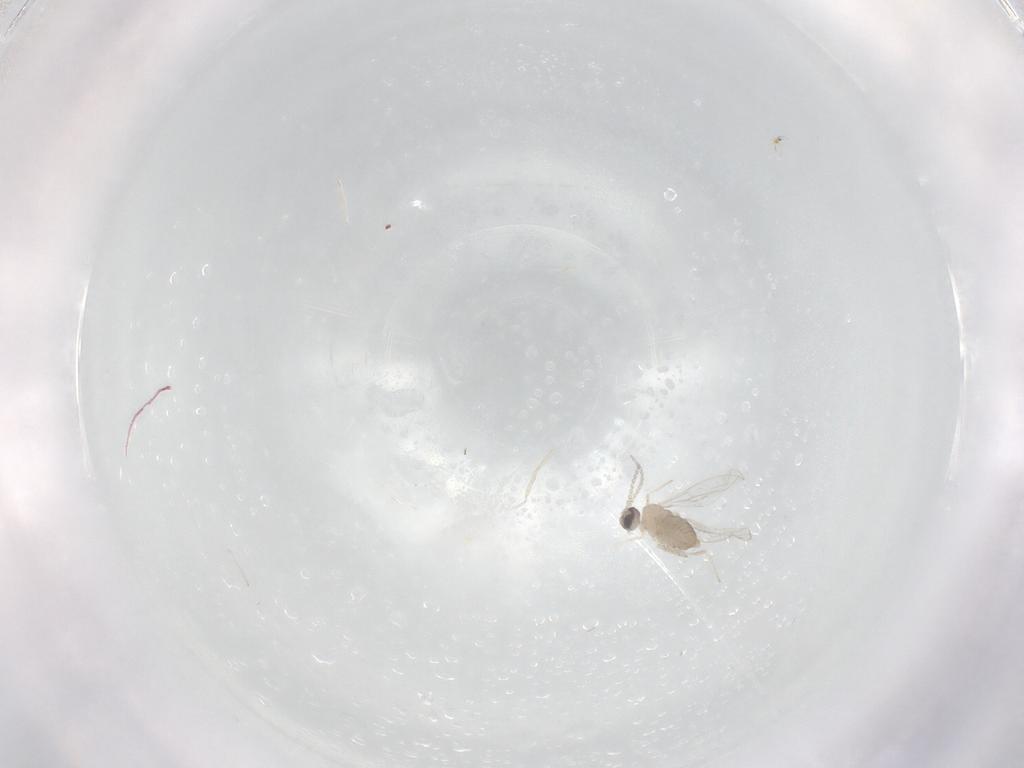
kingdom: Animalia
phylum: Arthropoda
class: Insecta
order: Diptera
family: Cecidomyiidae
